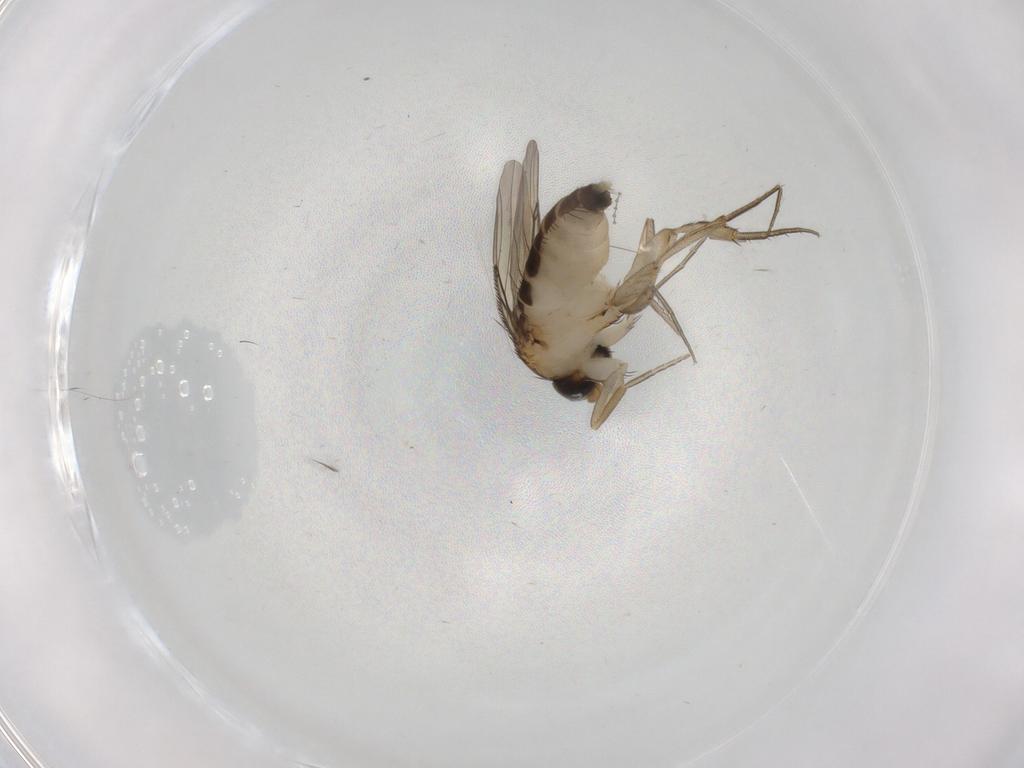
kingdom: Animalia
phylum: Arthropoda
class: Insecta
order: Diptera
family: Phoridae
